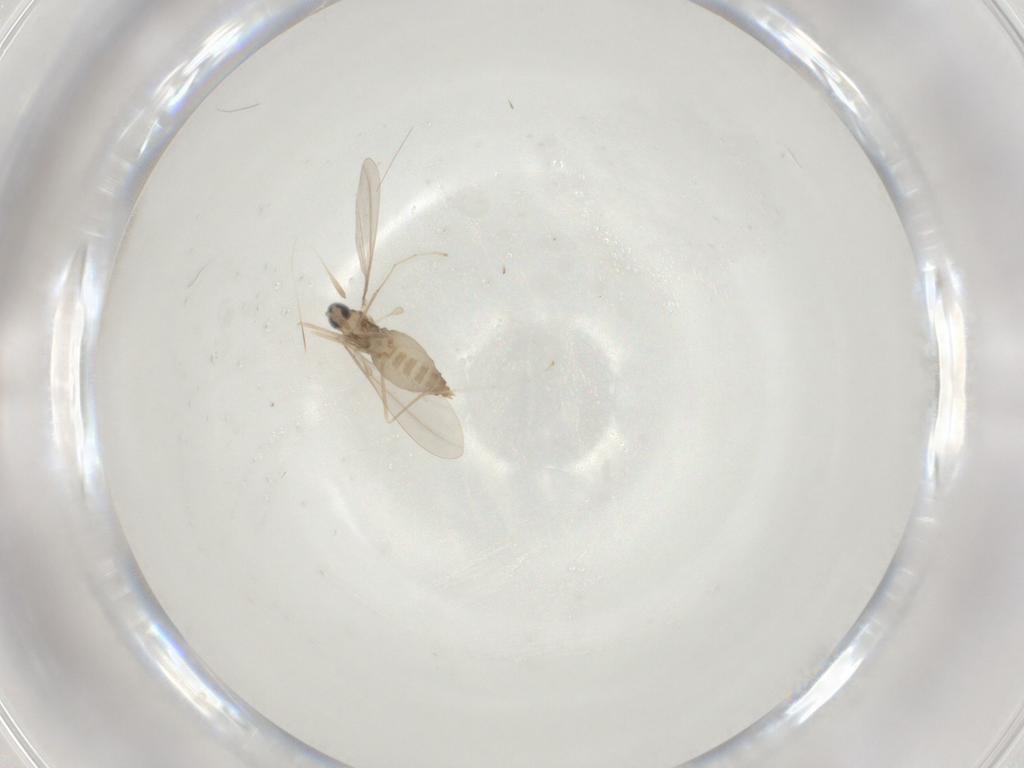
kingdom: Animalia
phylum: Arthropoda
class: Insecta
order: Diptera
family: Cecidomyiidae
